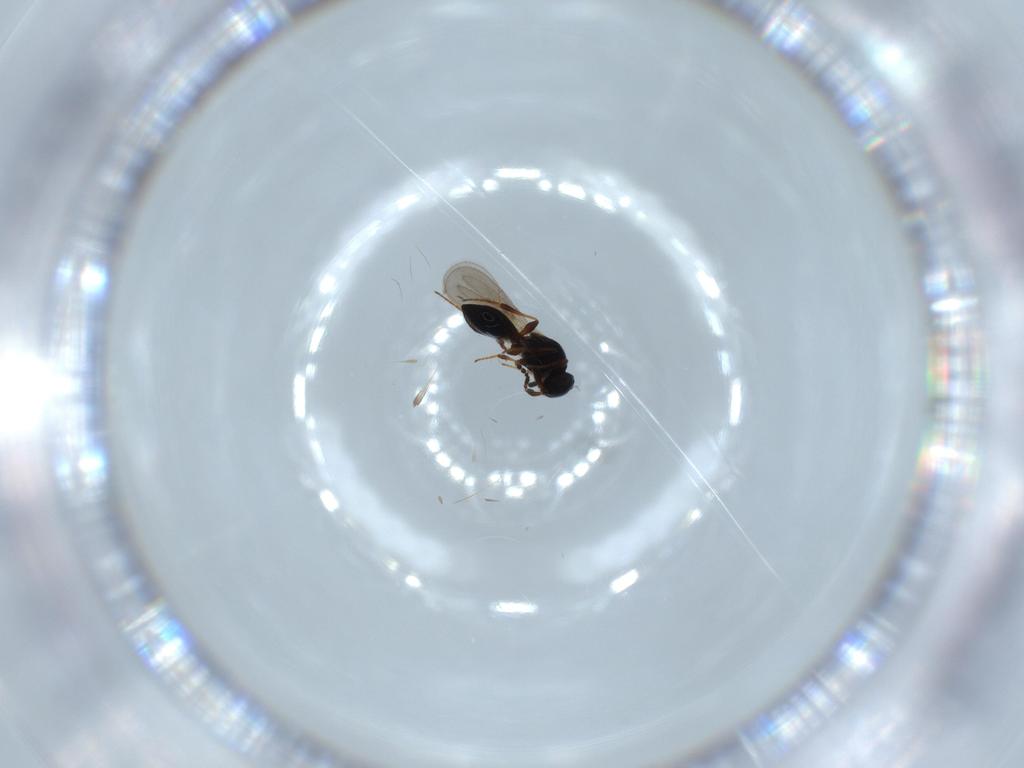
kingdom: Animalia
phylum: Arthropoda
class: Insecta
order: Hymenoptera
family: Platygastridae
